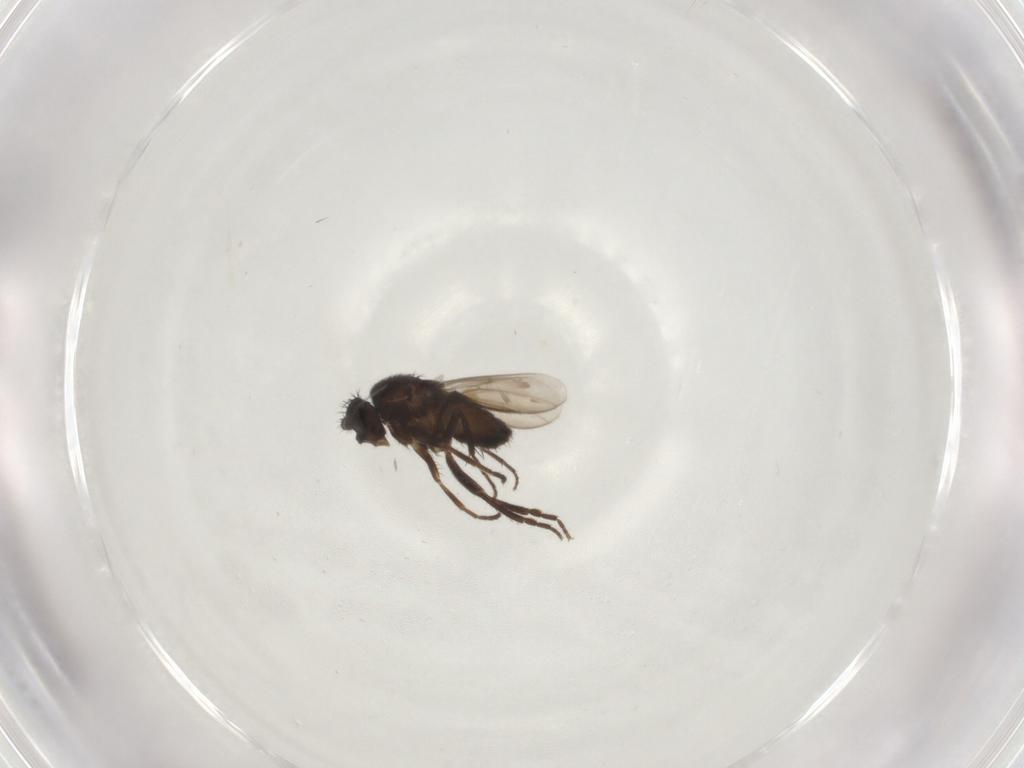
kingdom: Animalia
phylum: Arthropoda
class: Insecta
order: Diptera
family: Sphaeroceridae
